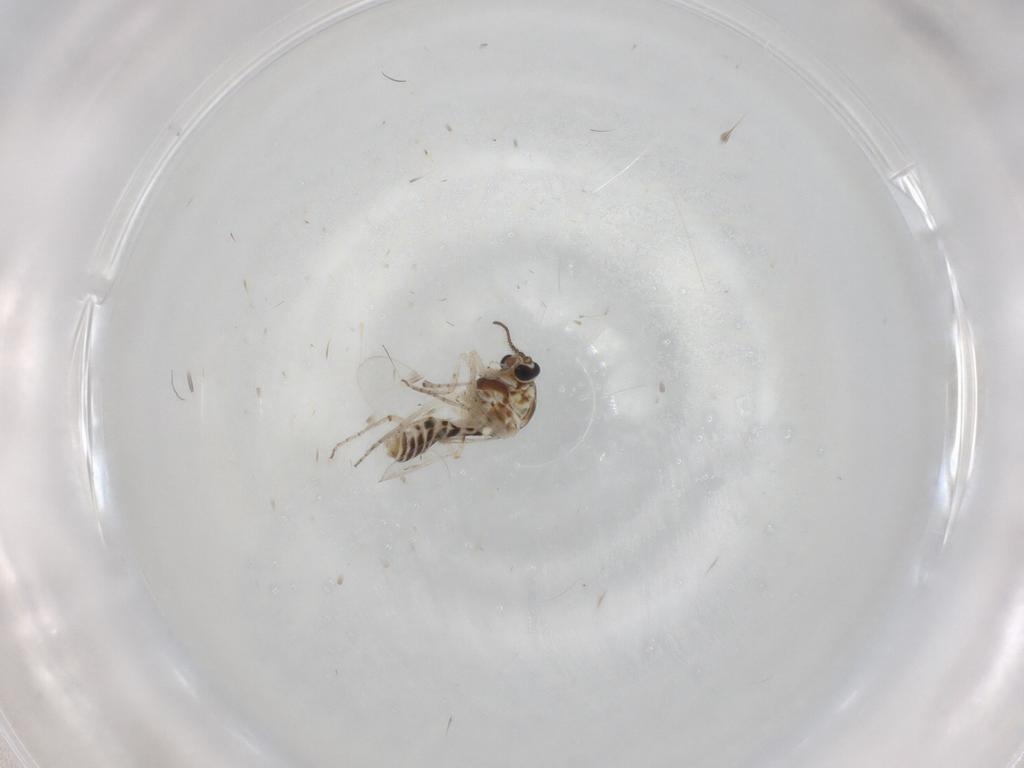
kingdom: Animalia
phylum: Arthropoda
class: Insecta
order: Diptera
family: Ceratopogonidae
